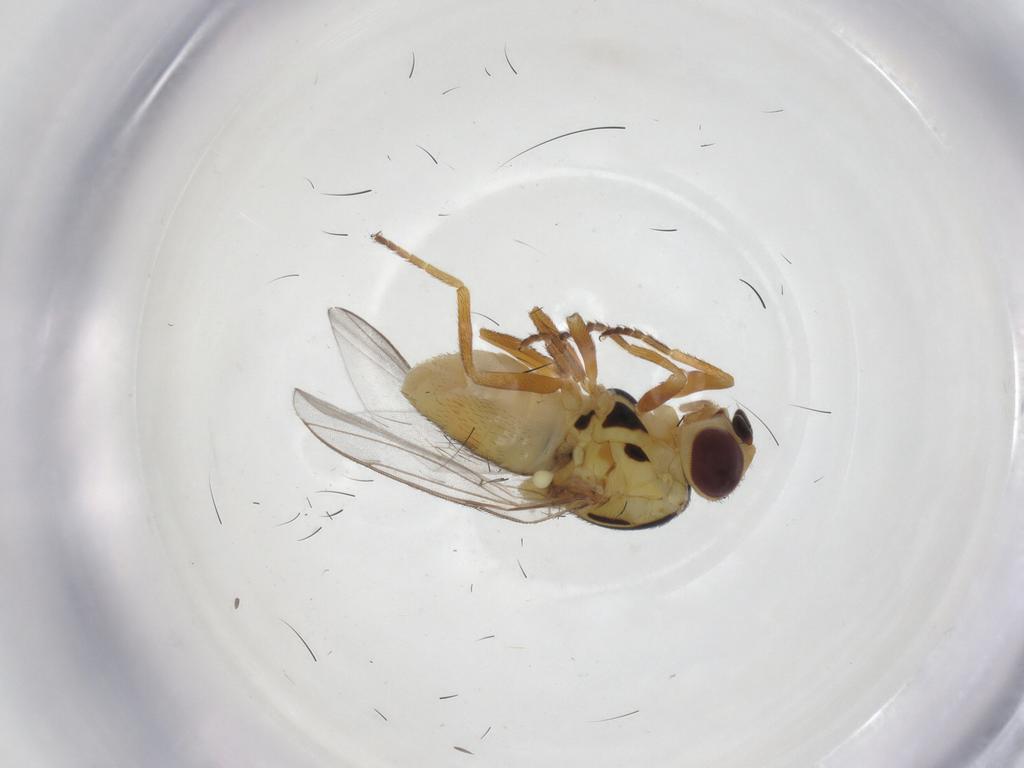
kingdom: Animalia
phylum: Arthropoda
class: Insecta
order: Diptera
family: Chloropidae
